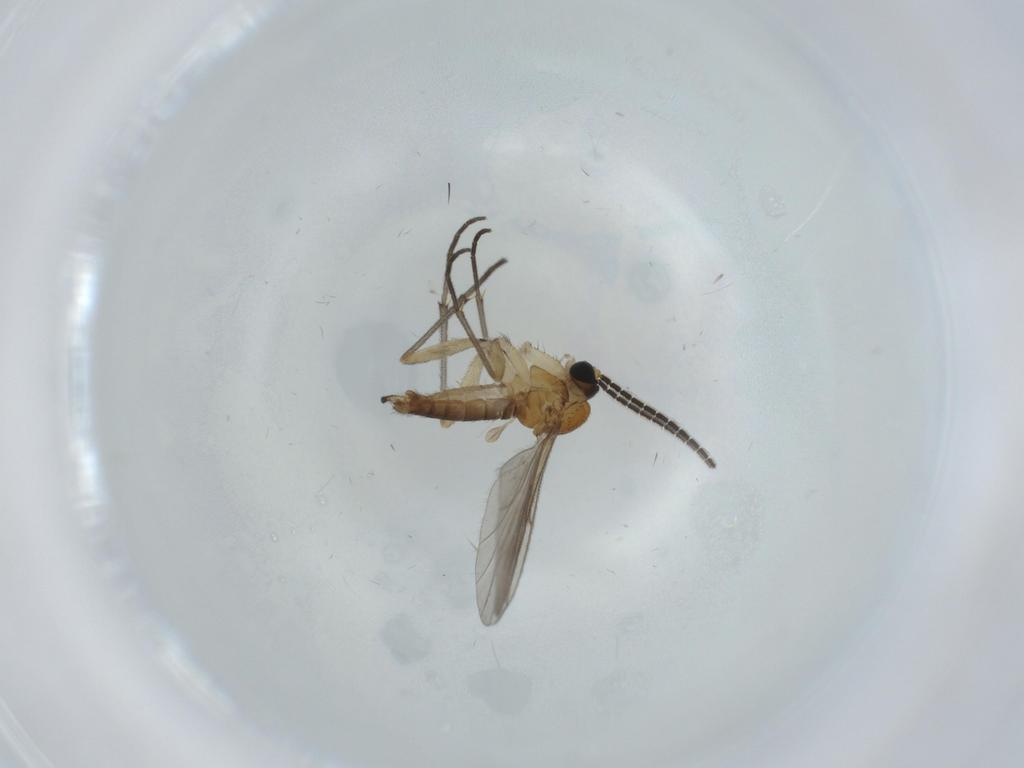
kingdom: Animalia
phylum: Arthropoda
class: Insecta
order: Diptera
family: Sciaridae
